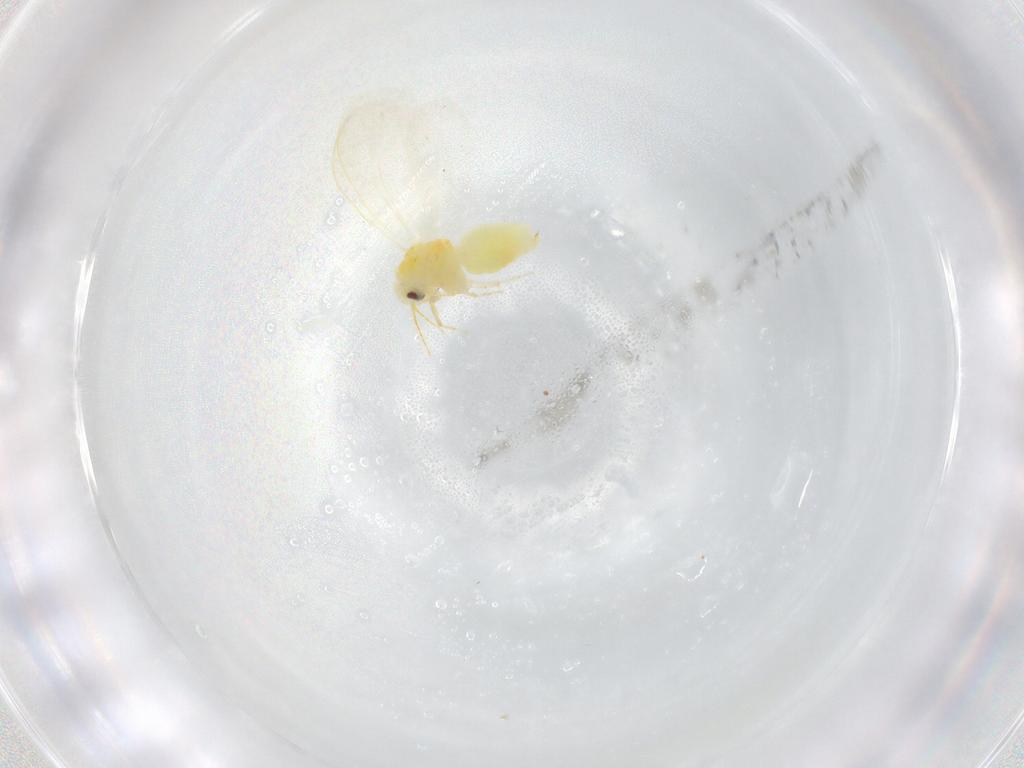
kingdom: Animalia
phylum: Arthropoda
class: Insecta
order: Hemiptera
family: Aleyrodidae
